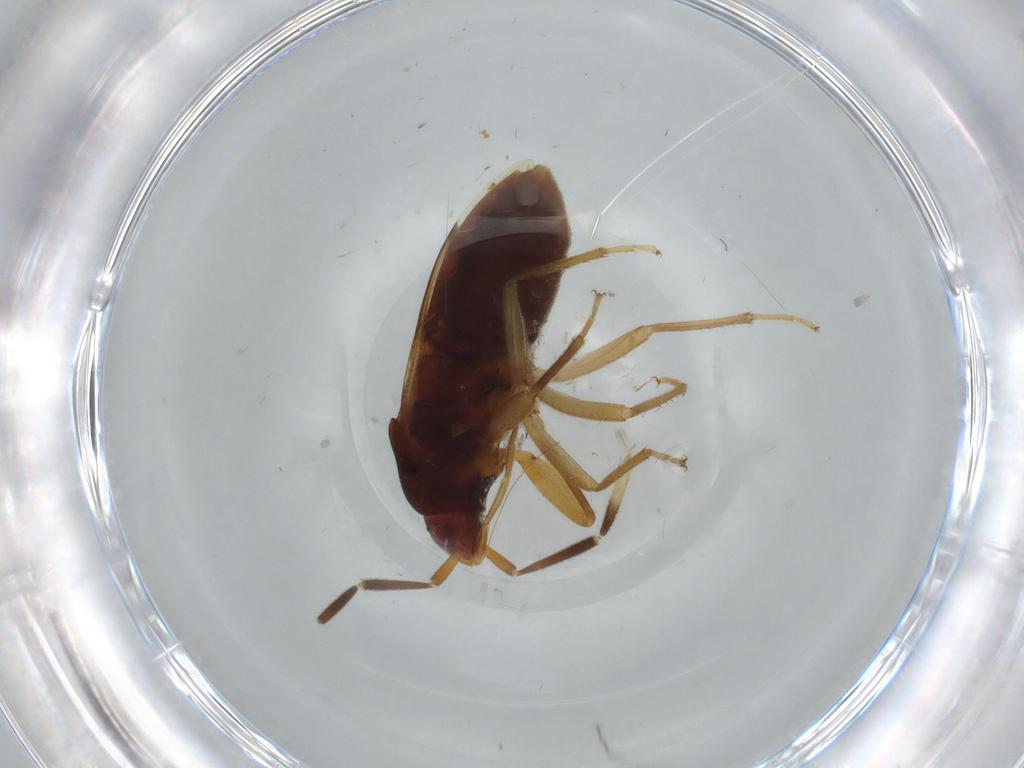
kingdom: Animalia
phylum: Arthropoda
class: Insecta
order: Hemiptera
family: Rhyparochromidae
